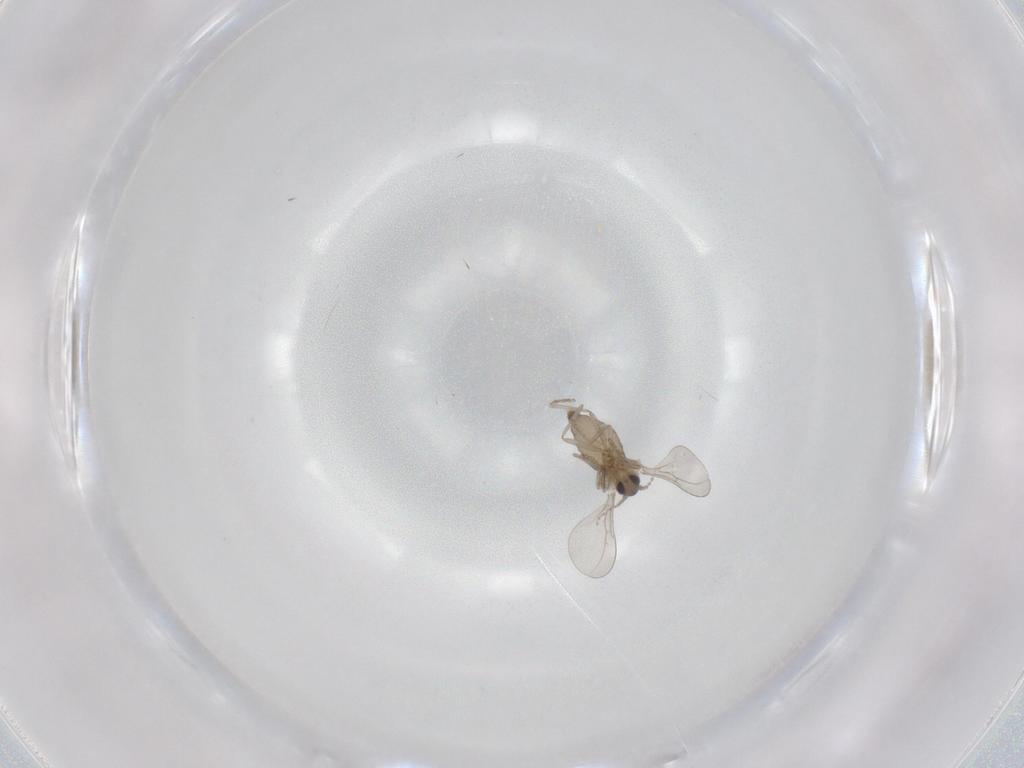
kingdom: Animalia
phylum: Arthropoda
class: Insecta
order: Diptera
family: Cecidomyiidae
